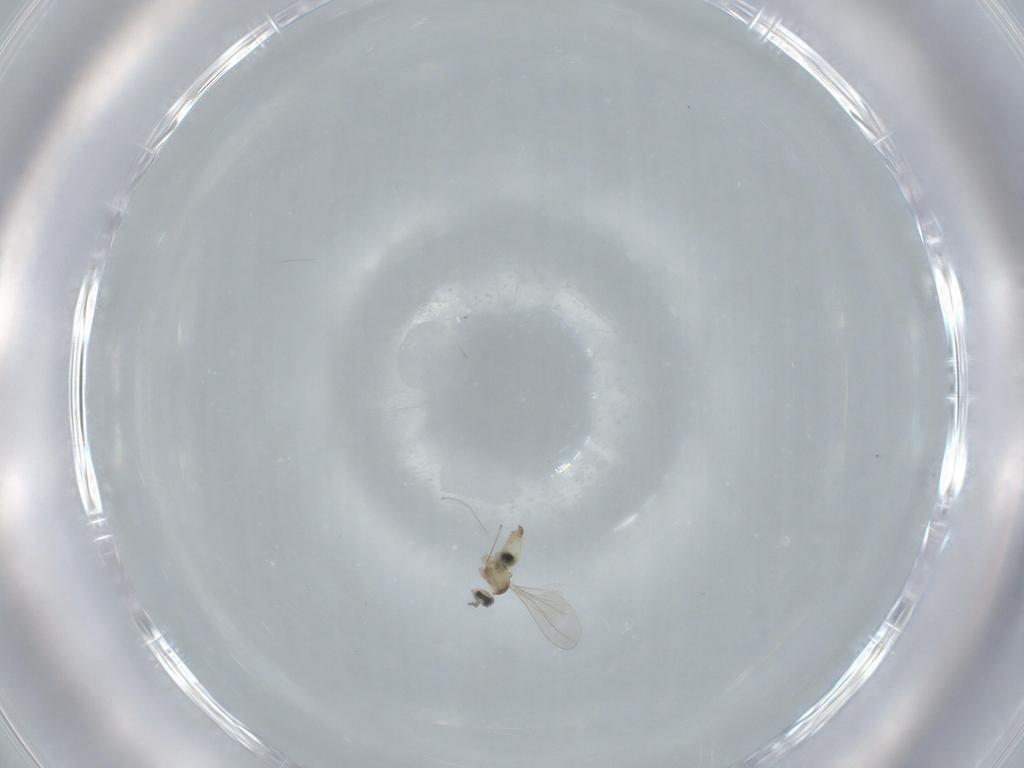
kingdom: Animalia
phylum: Arthropoda
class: Insecta
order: Diptera
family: Cecidomyiidae
